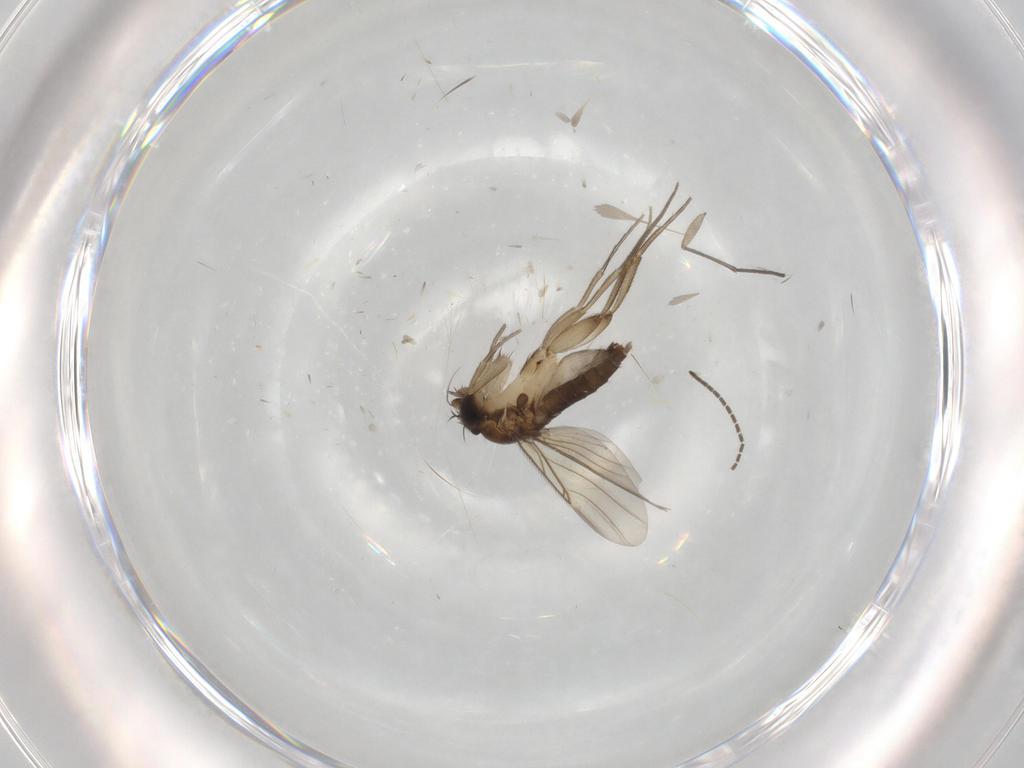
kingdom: Animalia
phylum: Arthropoda
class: Insecta
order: Diptera
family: Phoridae
